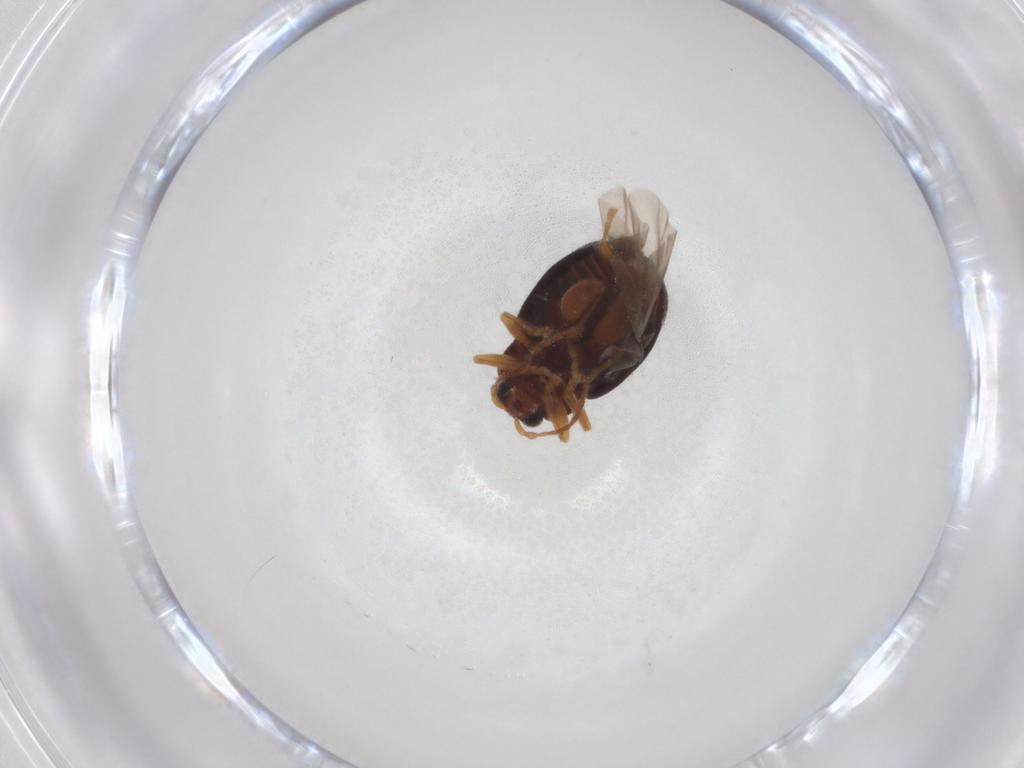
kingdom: Animalia
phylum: Arthropoda
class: Insecta
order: Coleoptera
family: Chrysomelidae
